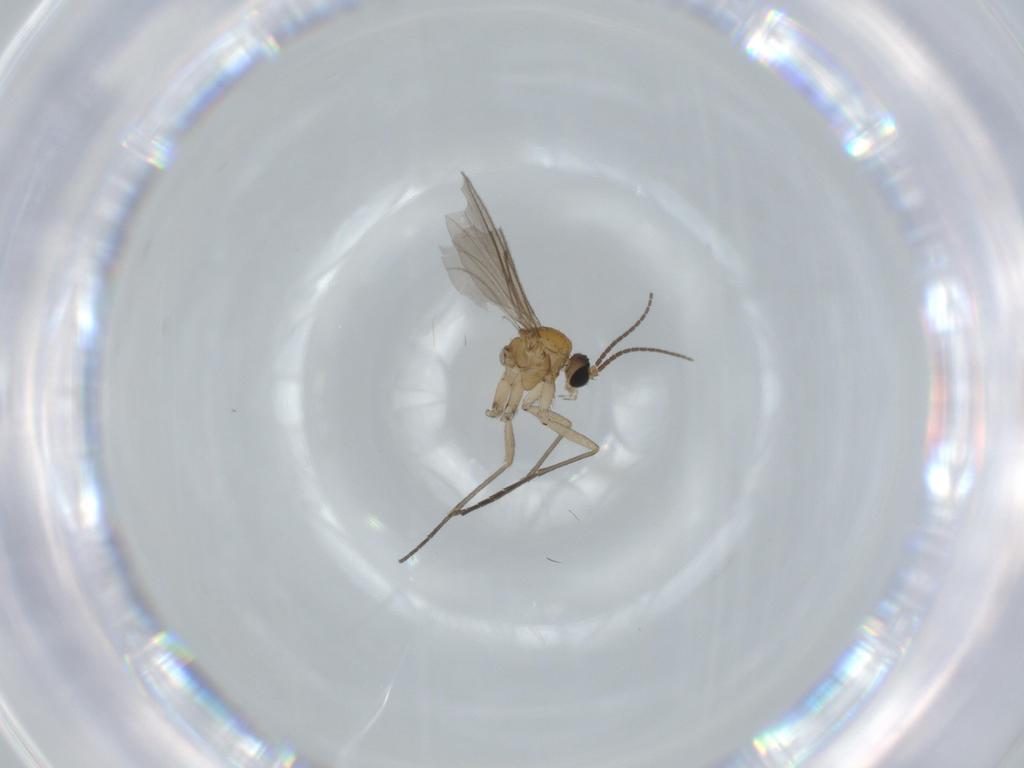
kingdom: Animalia
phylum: Arthropoda
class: Insecta
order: Diptera
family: Sciaridae
